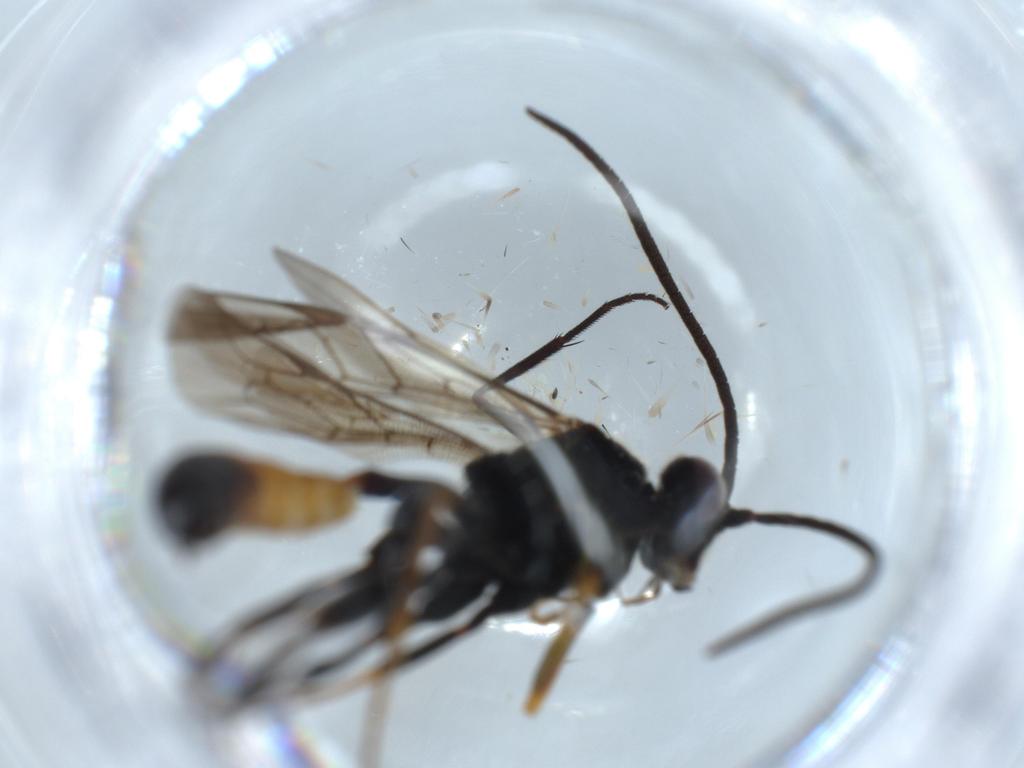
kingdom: Animalia
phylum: Arthropoda
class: Insecta
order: Hymenoptera
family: Ichneumonidae
